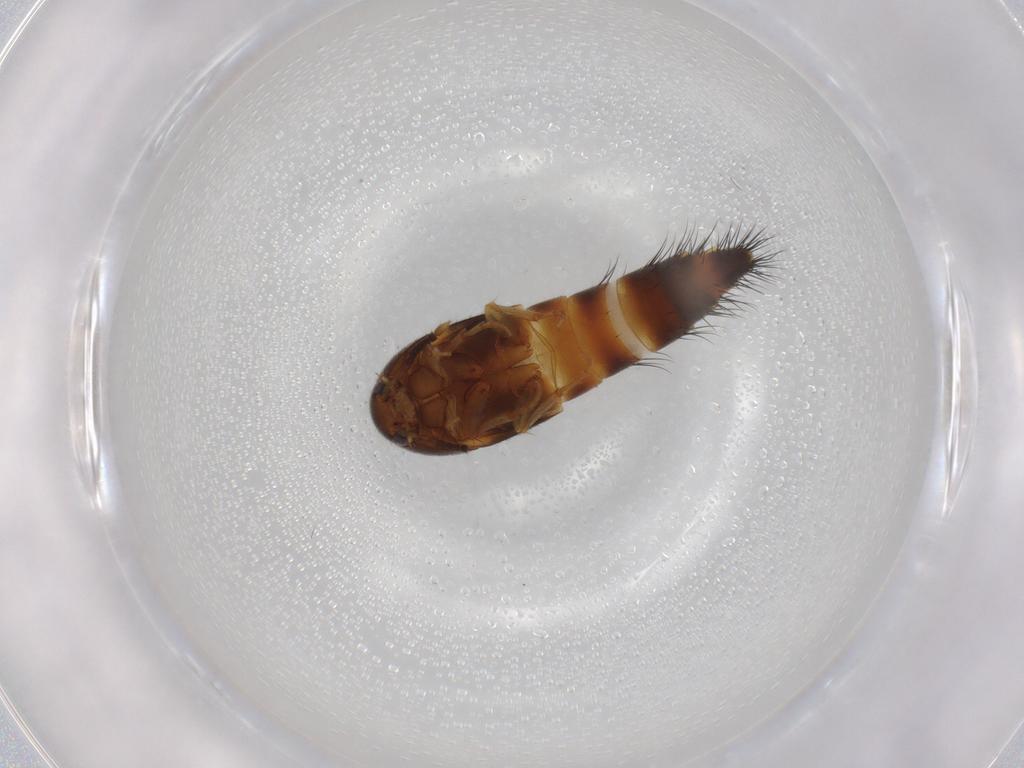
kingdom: Animalia
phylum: Arthropoda
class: Insecta
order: Coleoptera
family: Staphylinidae
